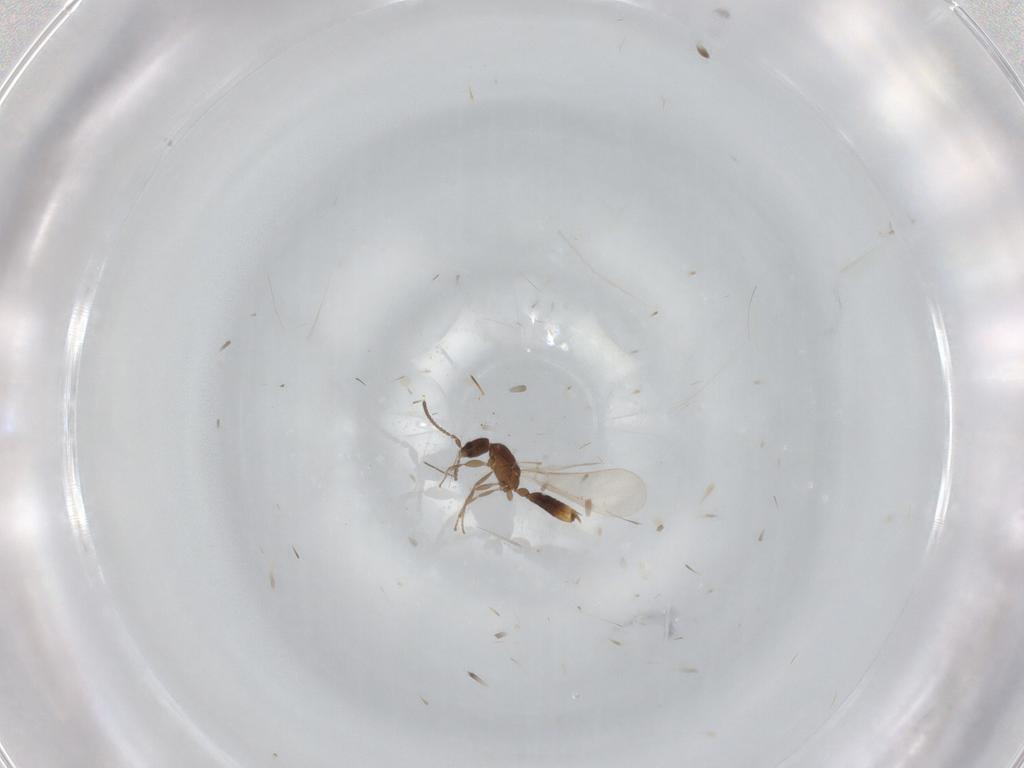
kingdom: Animalia
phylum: Arthropoda
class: Insecta
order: Hymenoptera
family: Formicidae
